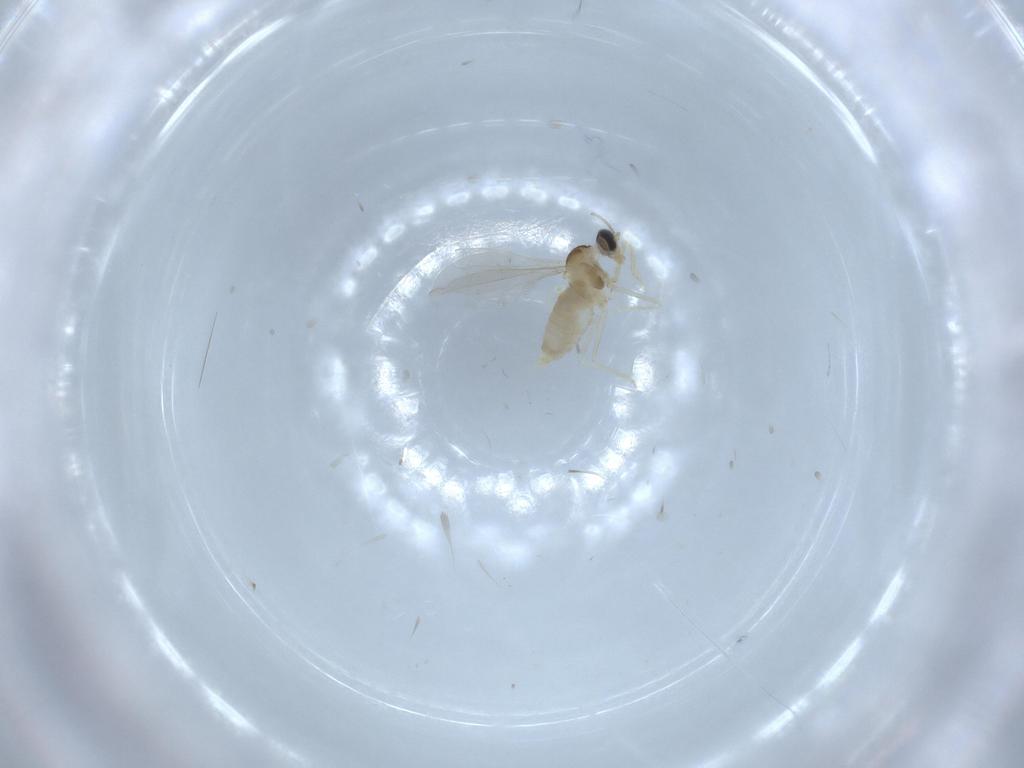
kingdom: Animalia
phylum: Arthropoda
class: Insecta
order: Diptera
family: Cecidomyiidae
